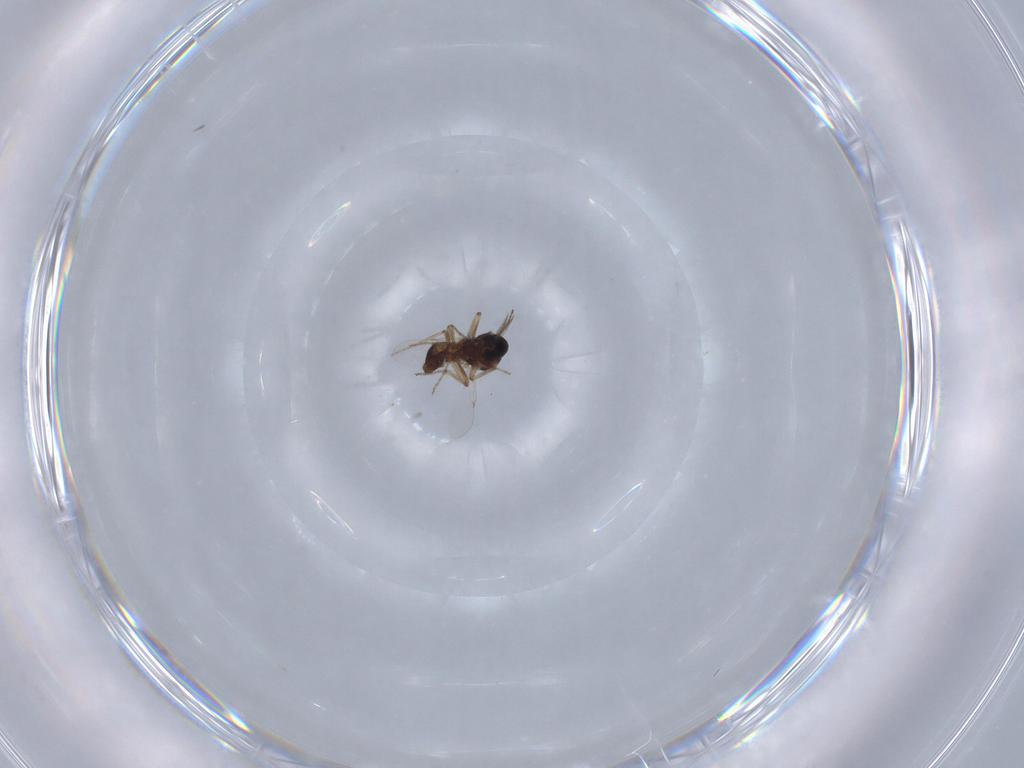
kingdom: Animalia
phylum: Arthropoda
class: Insecta
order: Diptera
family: Ceratopogonidae
